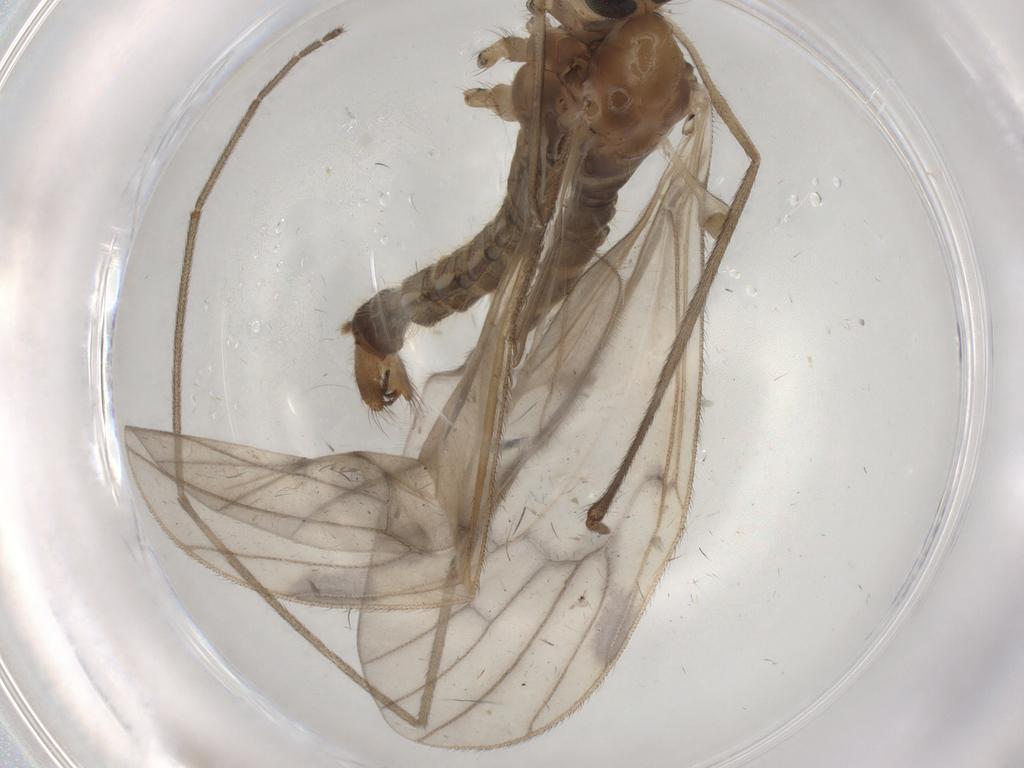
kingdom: Animalia
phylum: Arthropoda
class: Insecta
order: Diptera
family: Sciaridae
